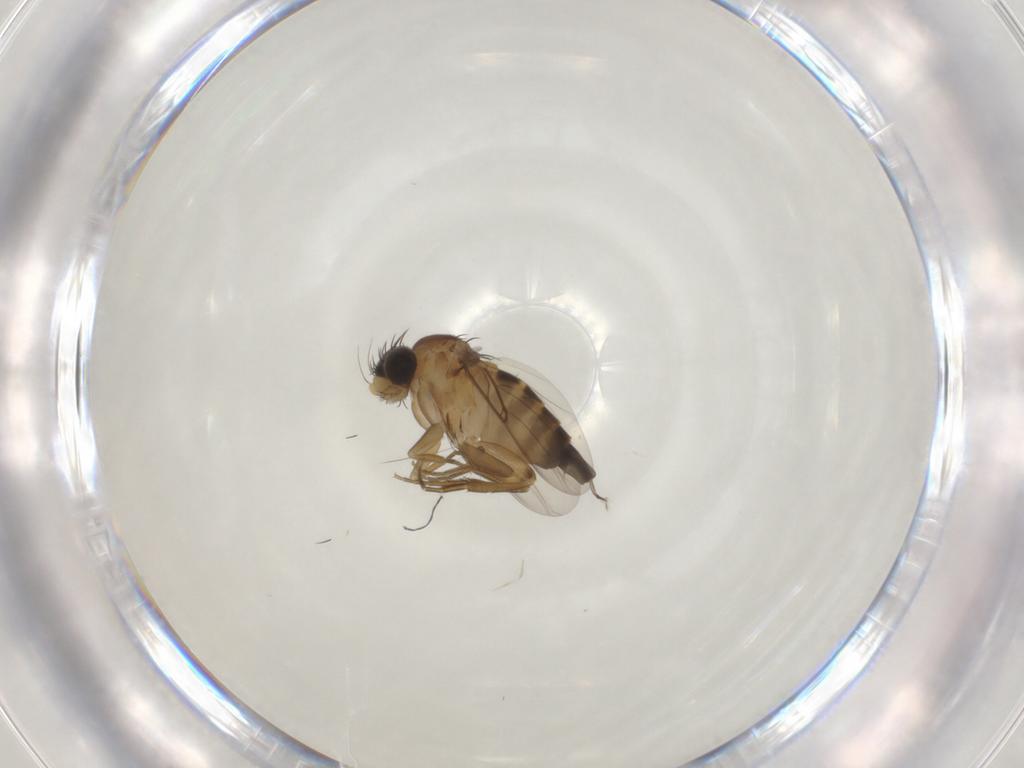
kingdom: Animalia
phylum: Arthropoda
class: Insecta
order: Diptera
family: Phoridae
